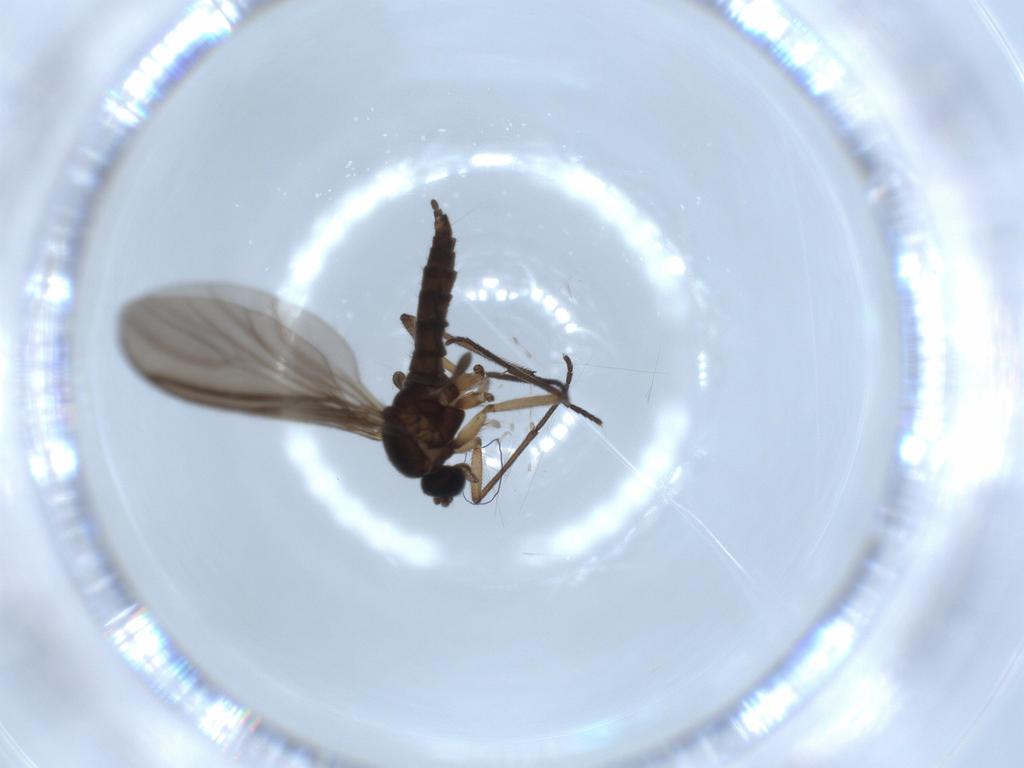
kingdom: Animalia
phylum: Arthropoda
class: Insecta
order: Diptera
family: Sciaridae
